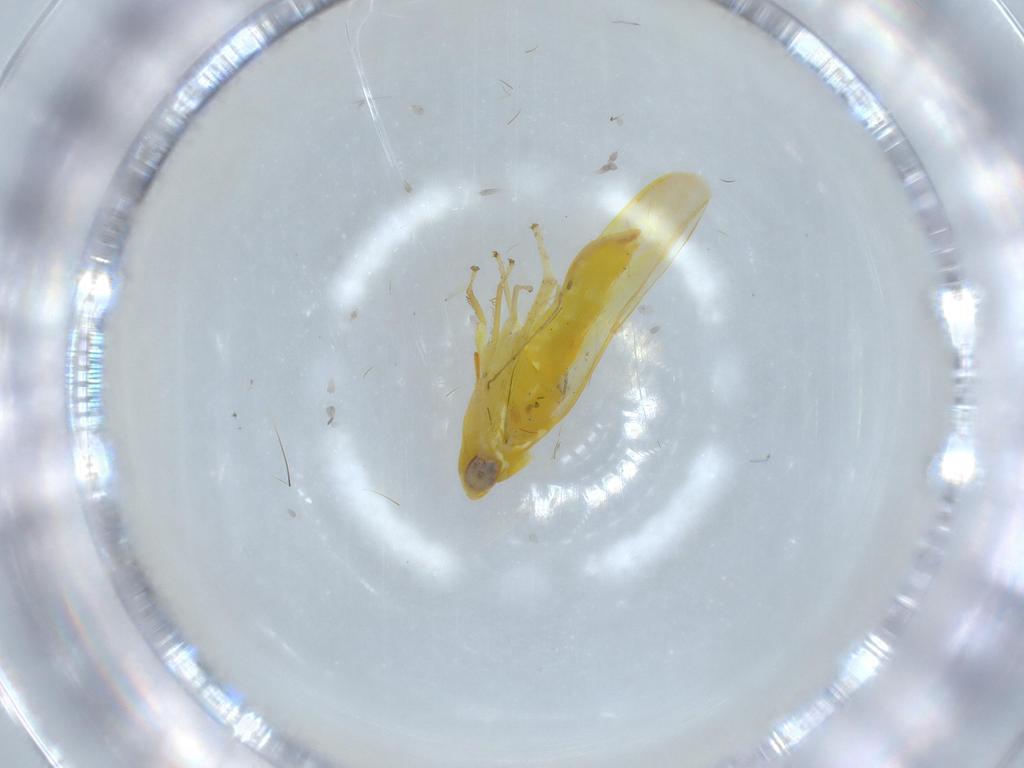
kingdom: Animalia
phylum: Arthropoda
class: Insecta
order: Hemiptera
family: Cicadellidae
